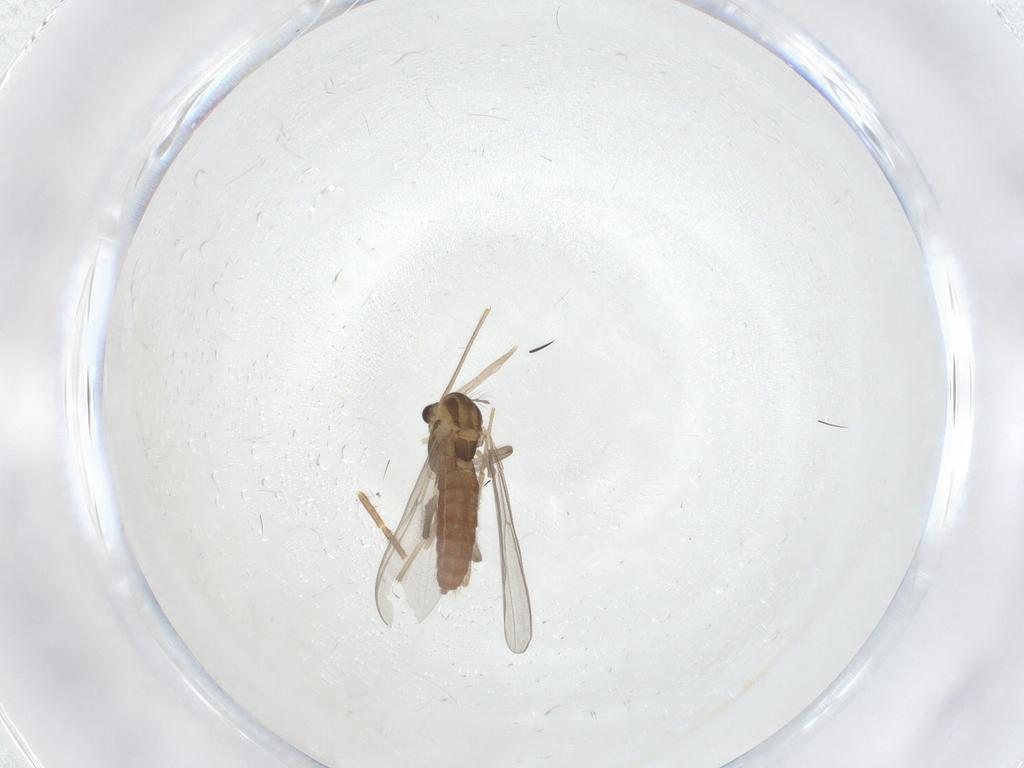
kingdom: Animalia
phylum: Arthropoda
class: Insecta
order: Diptera
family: Chironomidae
